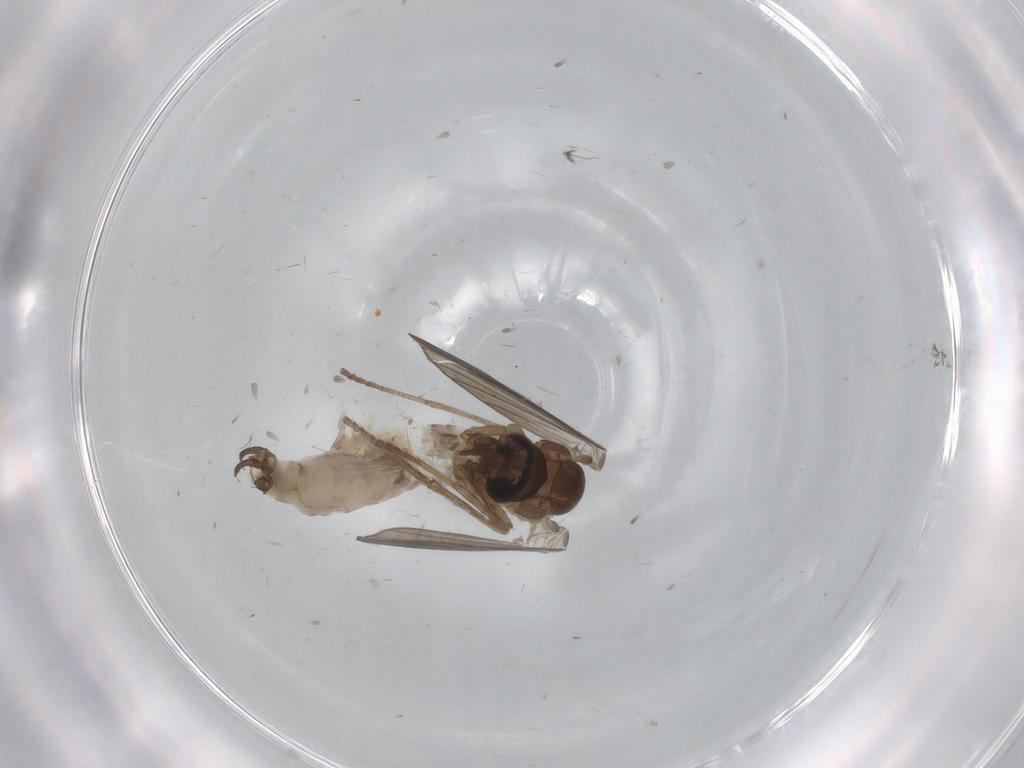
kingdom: Animalia
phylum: Arthropoda
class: Insecta
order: Diptera
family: Psychodidae
